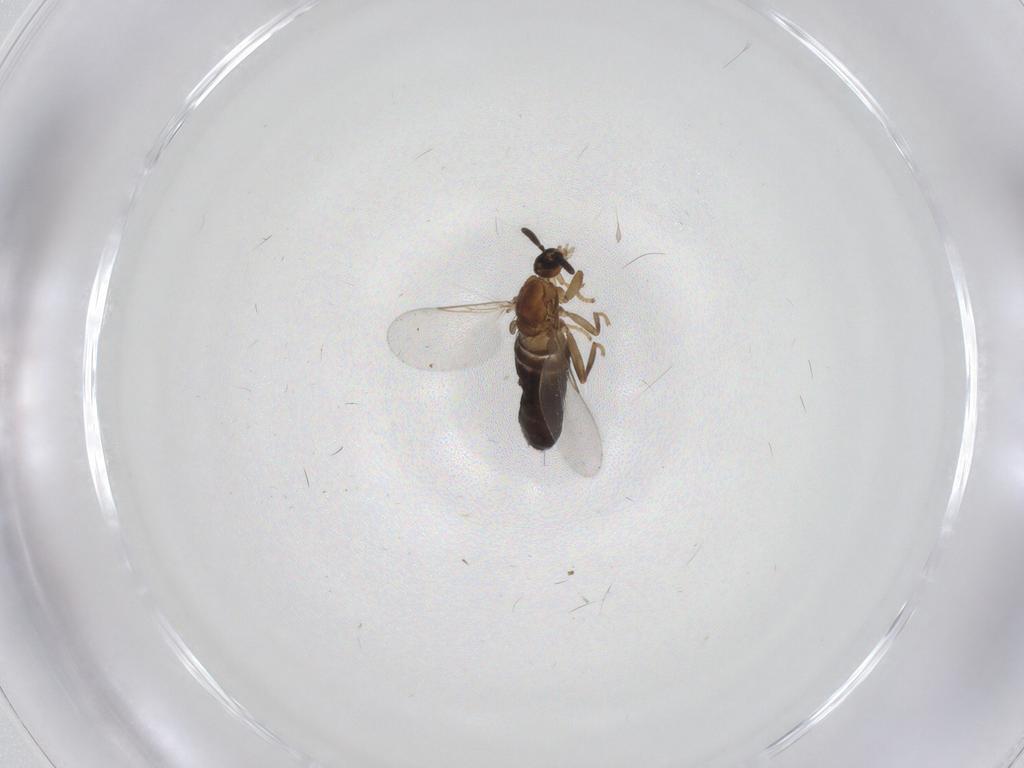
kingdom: Animalia
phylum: Arthropoda
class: Insecta
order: Diptera
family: Scatopsidae
